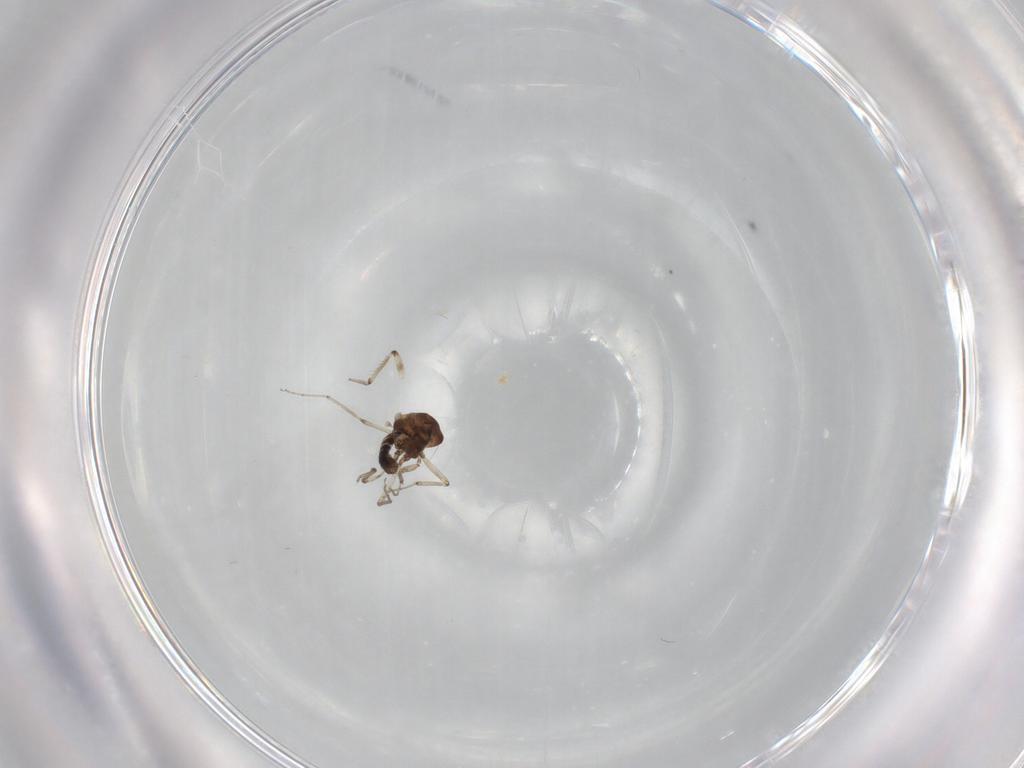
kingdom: Animalia
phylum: Arthropoda
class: Insecta
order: Diptera
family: Ceratopogonidae
